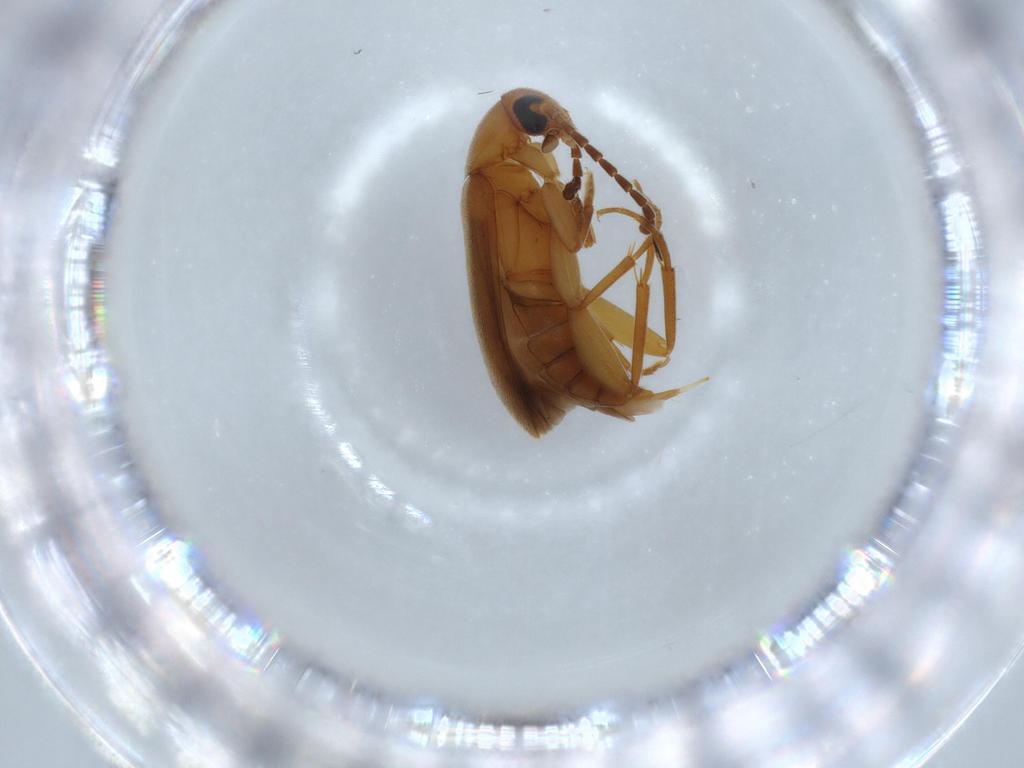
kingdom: Animalia
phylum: Arthropoda
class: Insecta
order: Coleoptera
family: Scraptiidae
